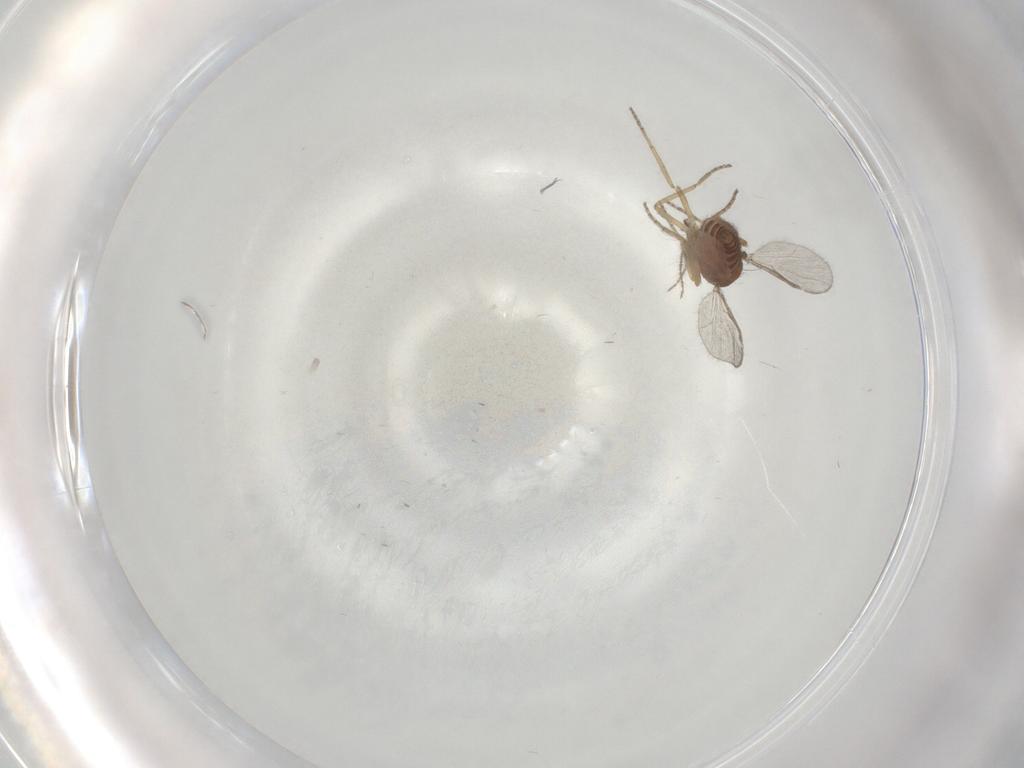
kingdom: Animalia
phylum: Arthropoda
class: Insecta
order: Diptera
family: Ceratopogonidae
